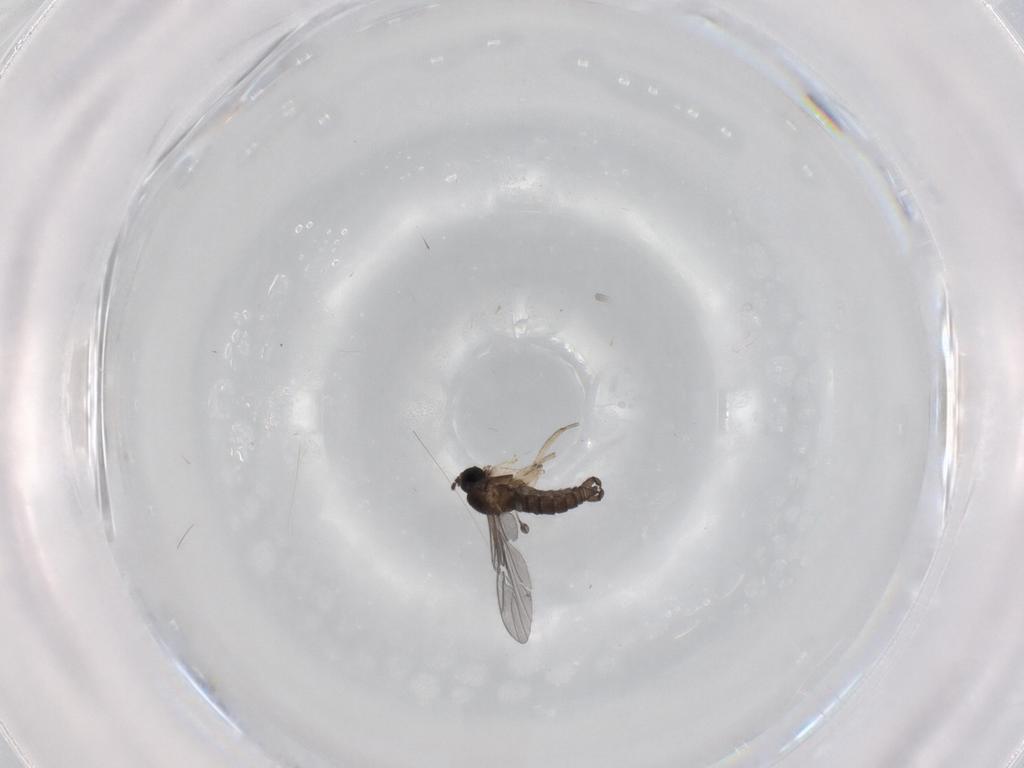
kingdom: Animalia
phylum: Arthropoda
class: Insecta
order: Diptera
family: Sciaridae
